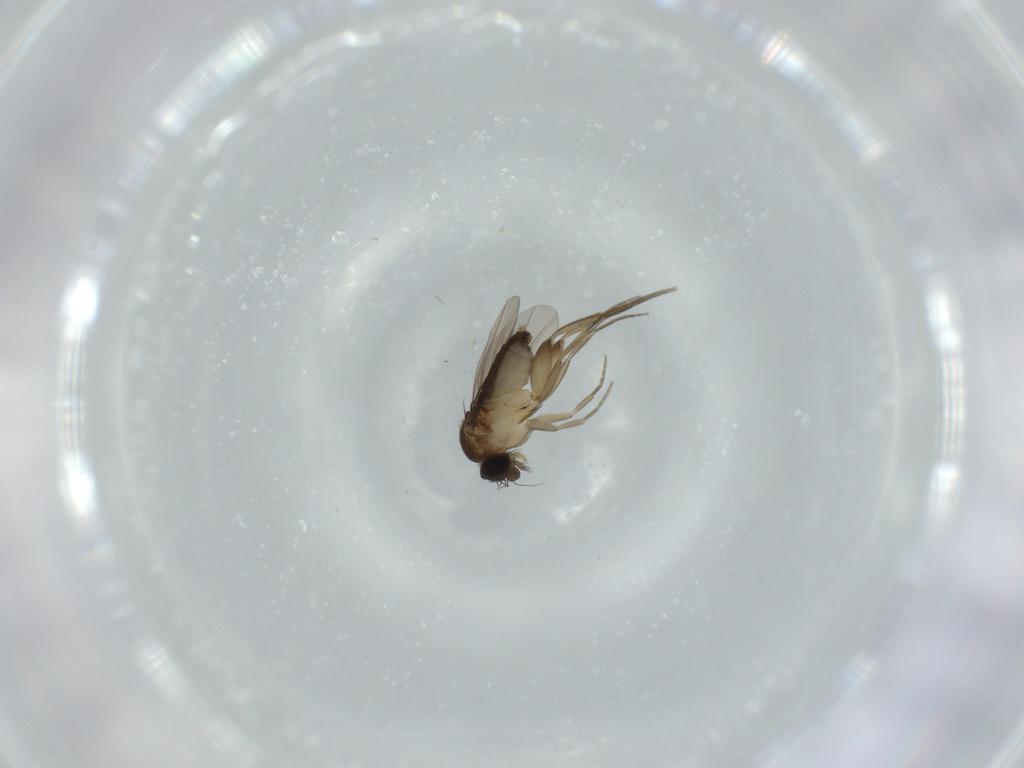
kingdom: Animalia
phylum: Arthropoda
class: Insecta
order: Diptera
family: Phoridae
